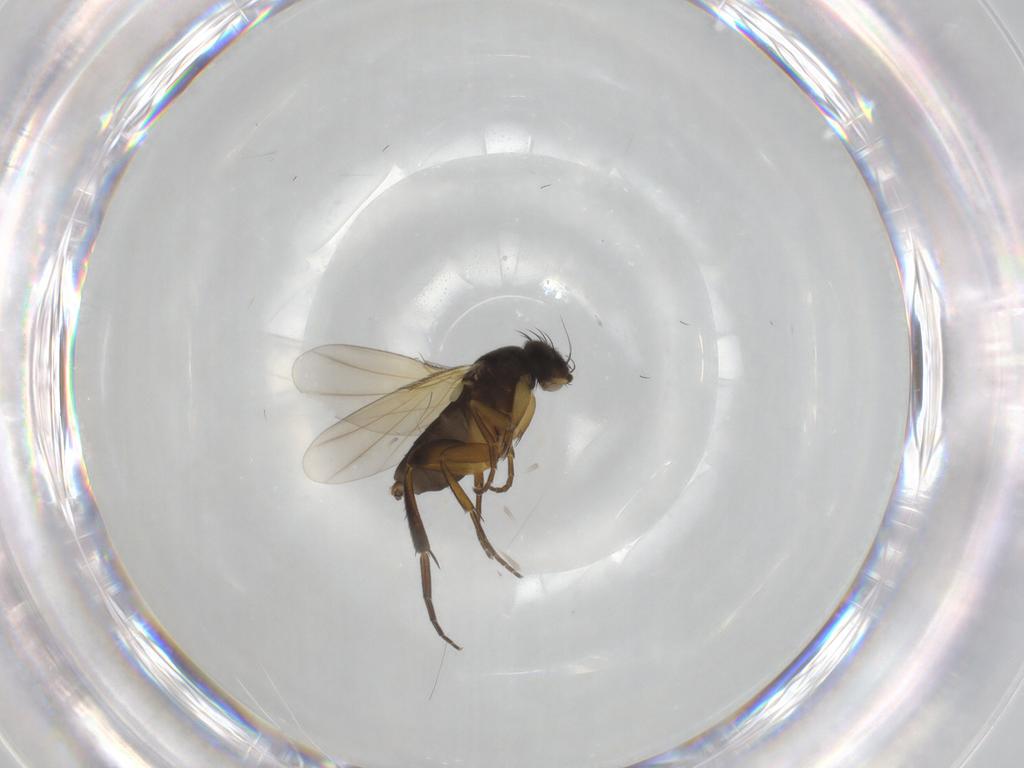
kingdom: Animalia
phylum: Arthropoda
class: Insecta
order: Diptera
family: Phoridae
